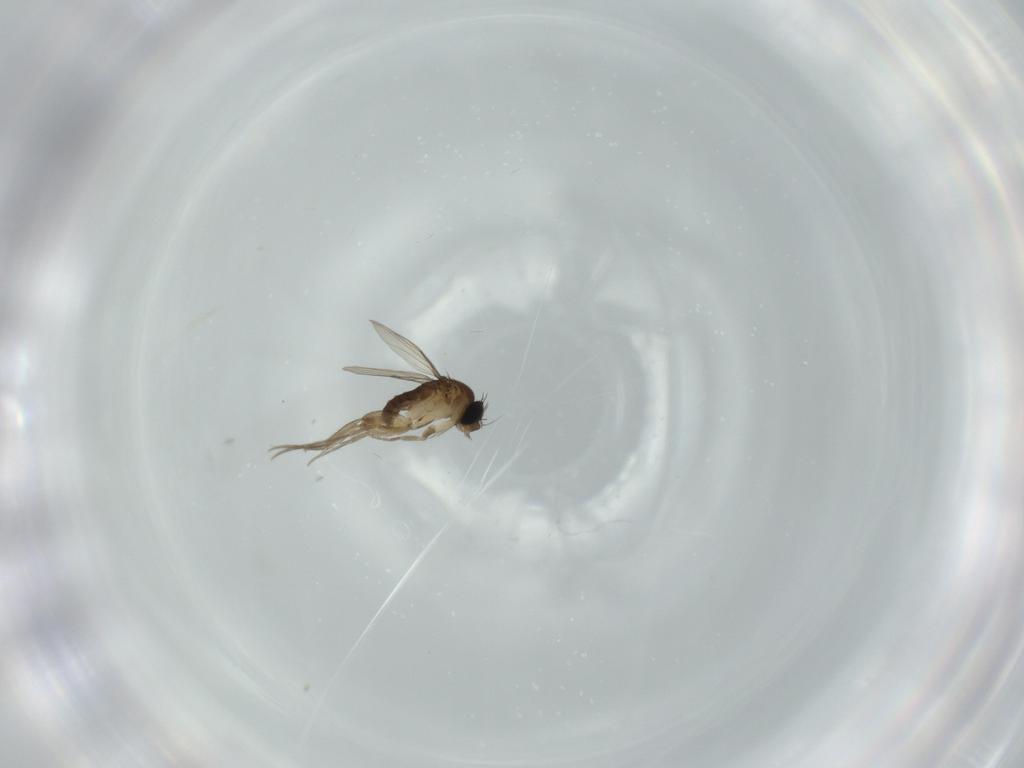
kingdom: Animalia
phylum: Arthropoda
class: Insecta
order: Diptera
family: Phoridae
